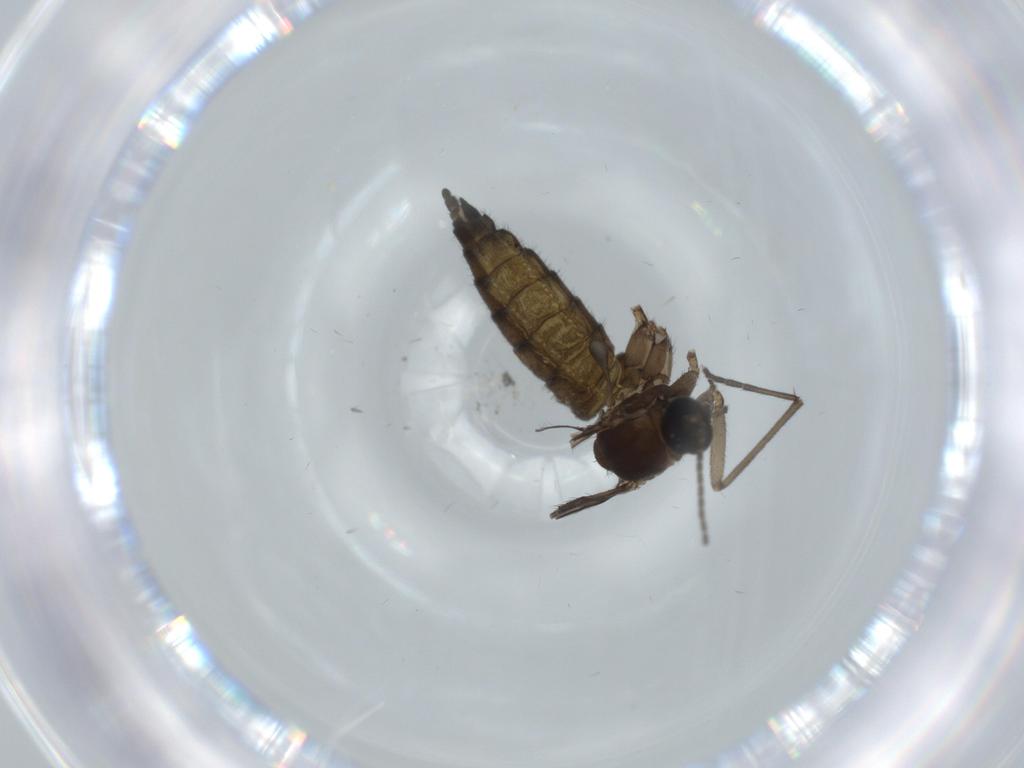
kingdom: Animalia
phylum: Arthropoda
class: Insecta
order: Diptera
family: Sciaridae
